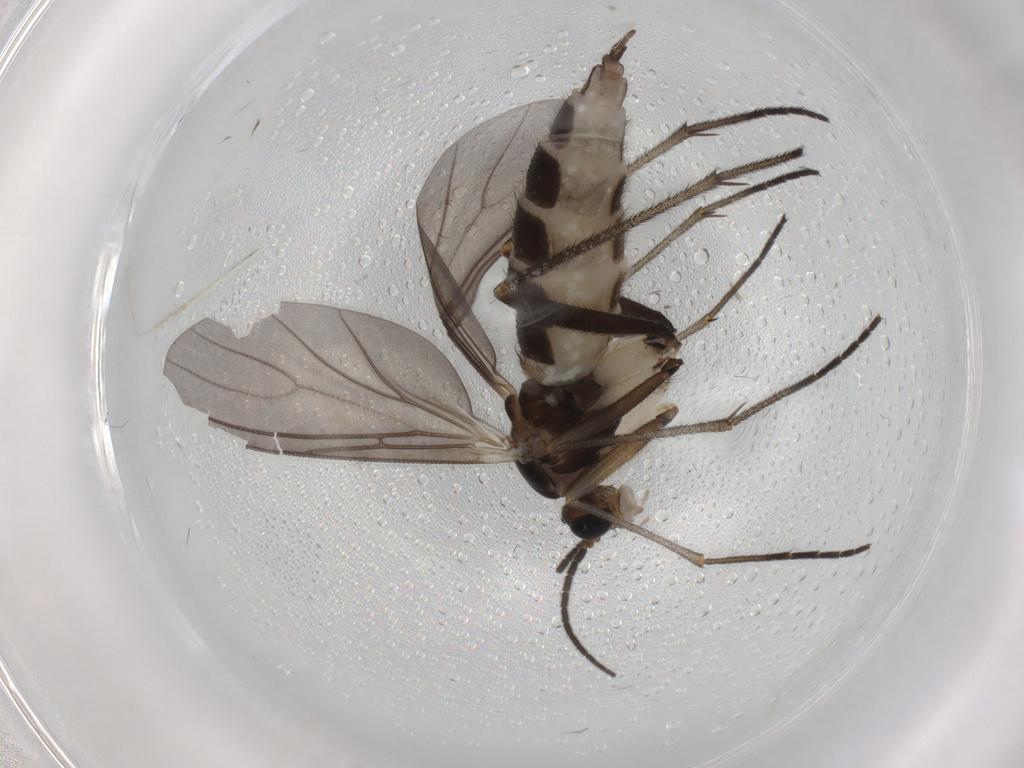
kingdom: Animalia
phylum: Arthropoda
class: Insecta
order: Diptera
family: Sciaridae
